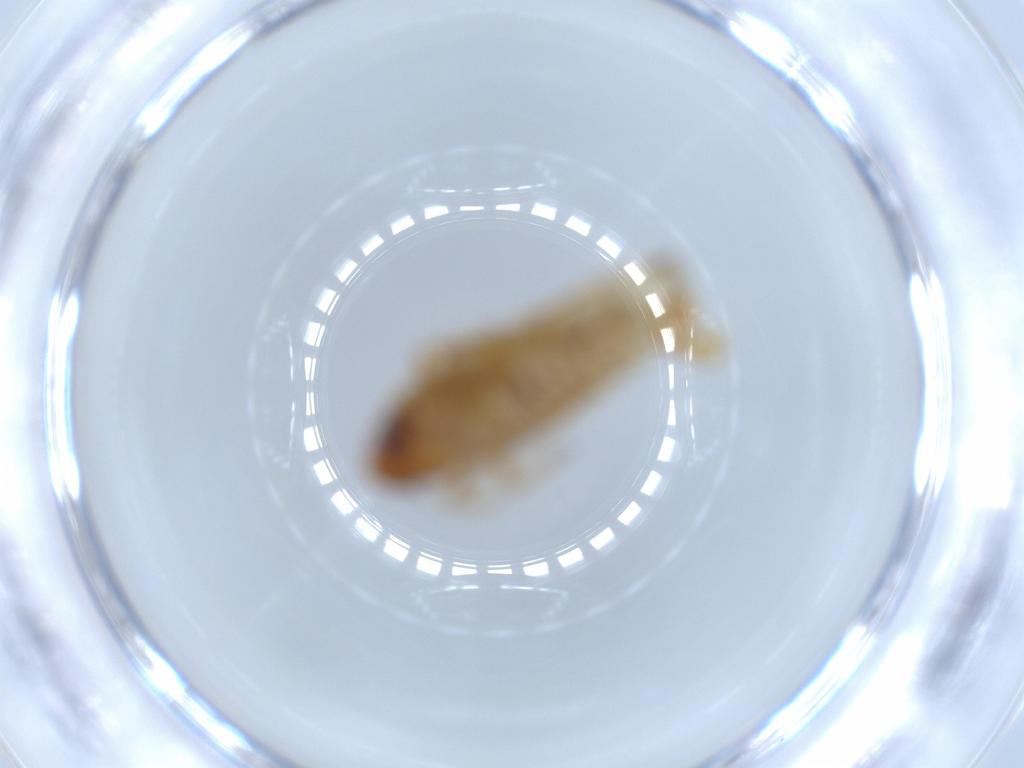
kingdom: Animalia
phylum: Arthropoda
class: Insecta
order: Hemiptera
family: Cicadellidae
